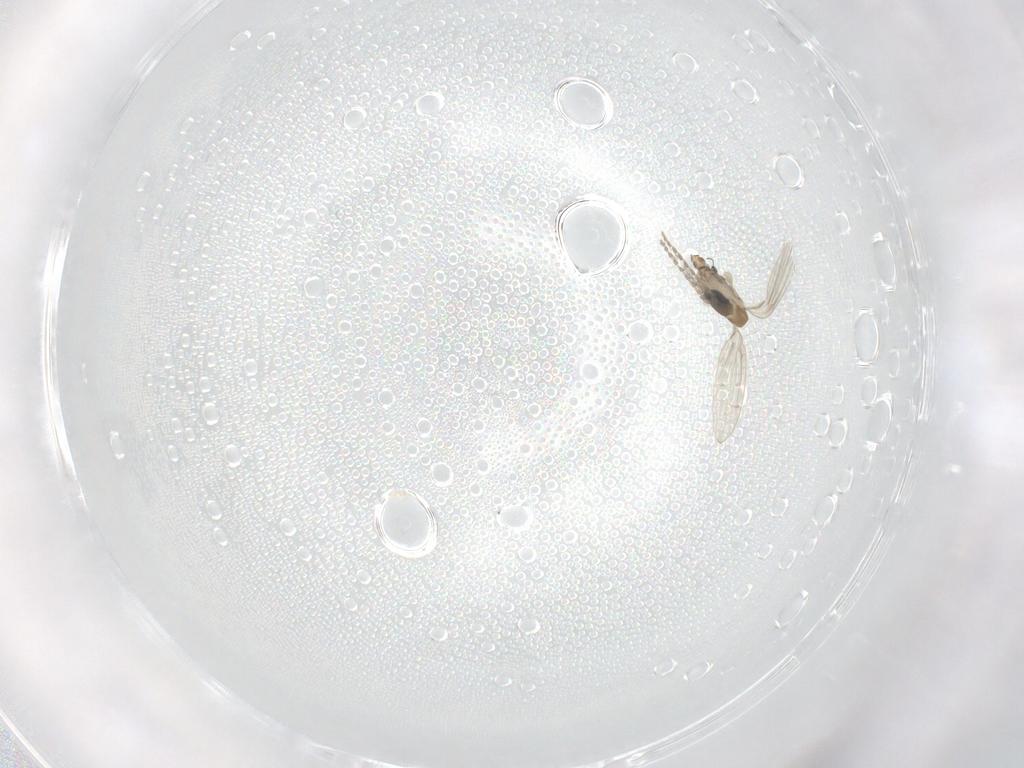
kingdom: Animalia
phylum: Arthropoda
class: Insecta
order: Diptera
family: Psychodidae
